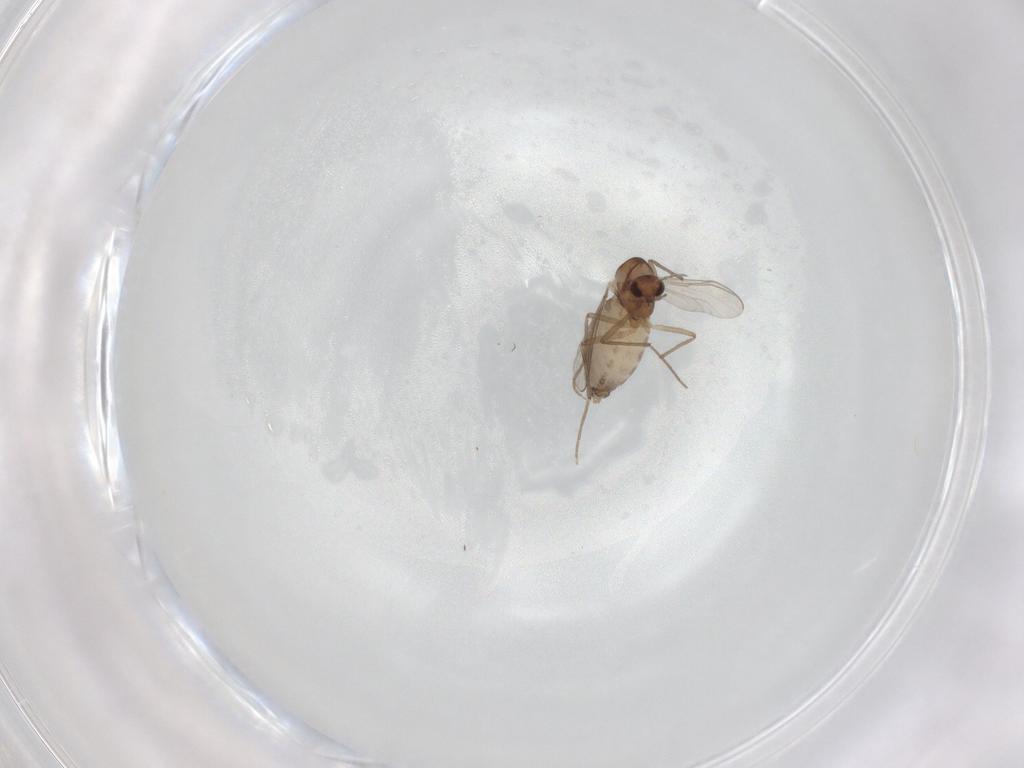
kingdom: Animalia
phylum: Arthropoda
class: Insecta
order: Diptera
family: Chironomidae
